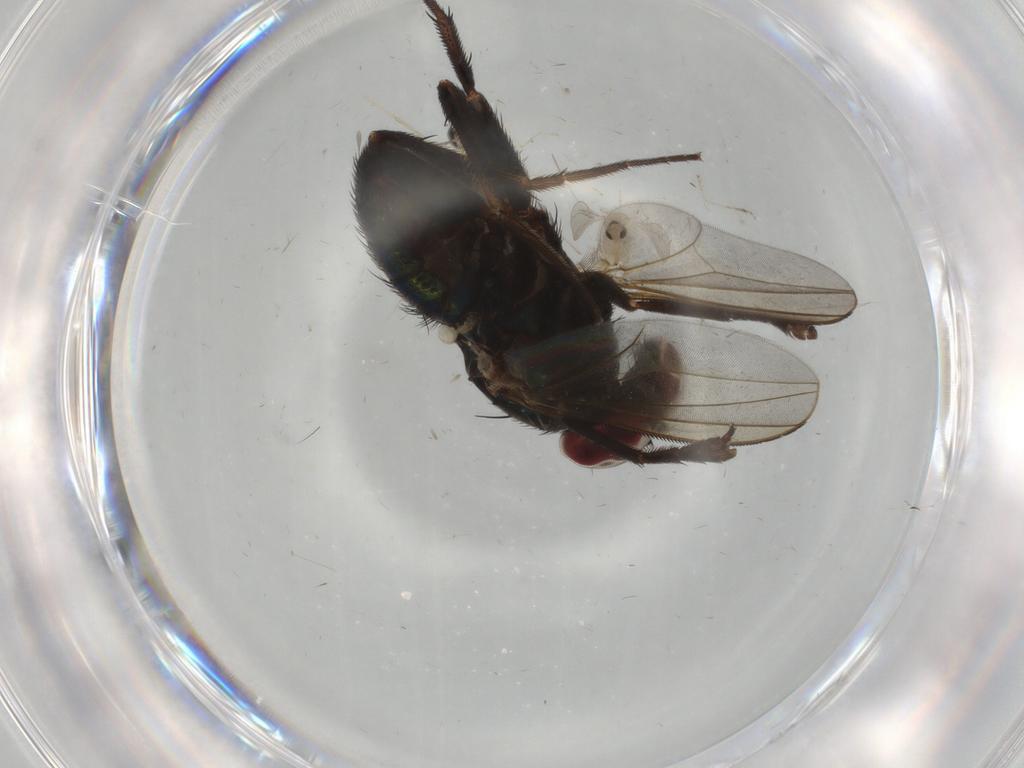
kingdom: Animalia
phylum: Arthropoda
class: Insecta
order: Diptera
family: Dolichopodidae
